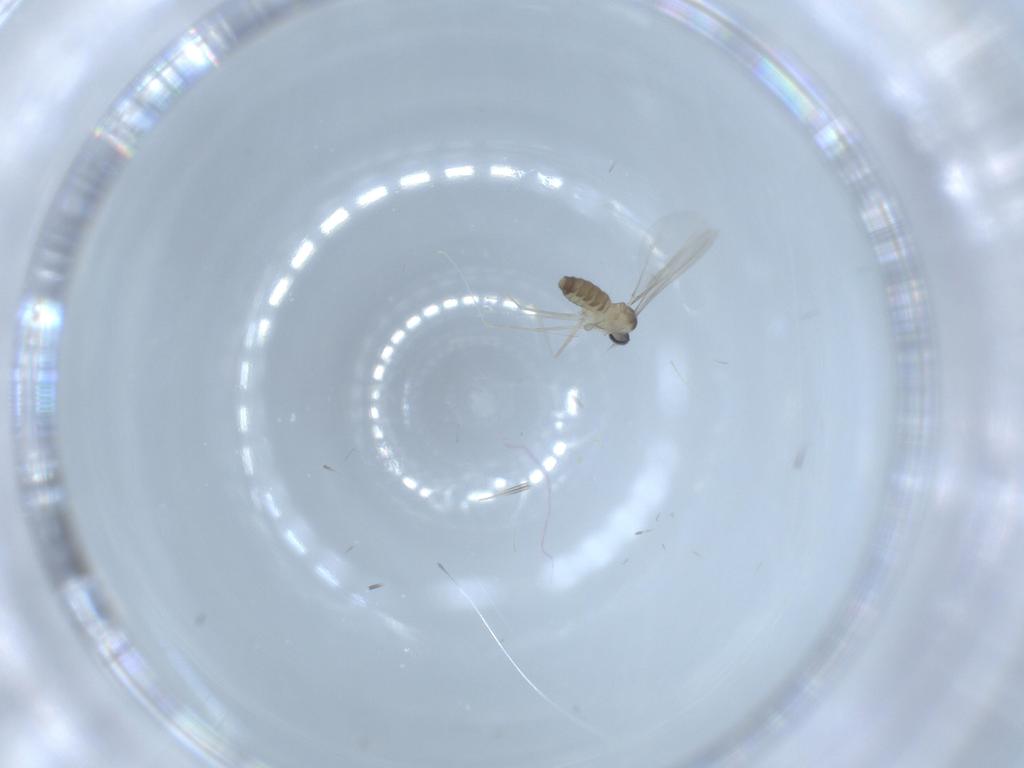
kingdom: Animalia
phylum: Arthropoda
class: Insecta
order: Diptera
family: Cecidomyiidae
